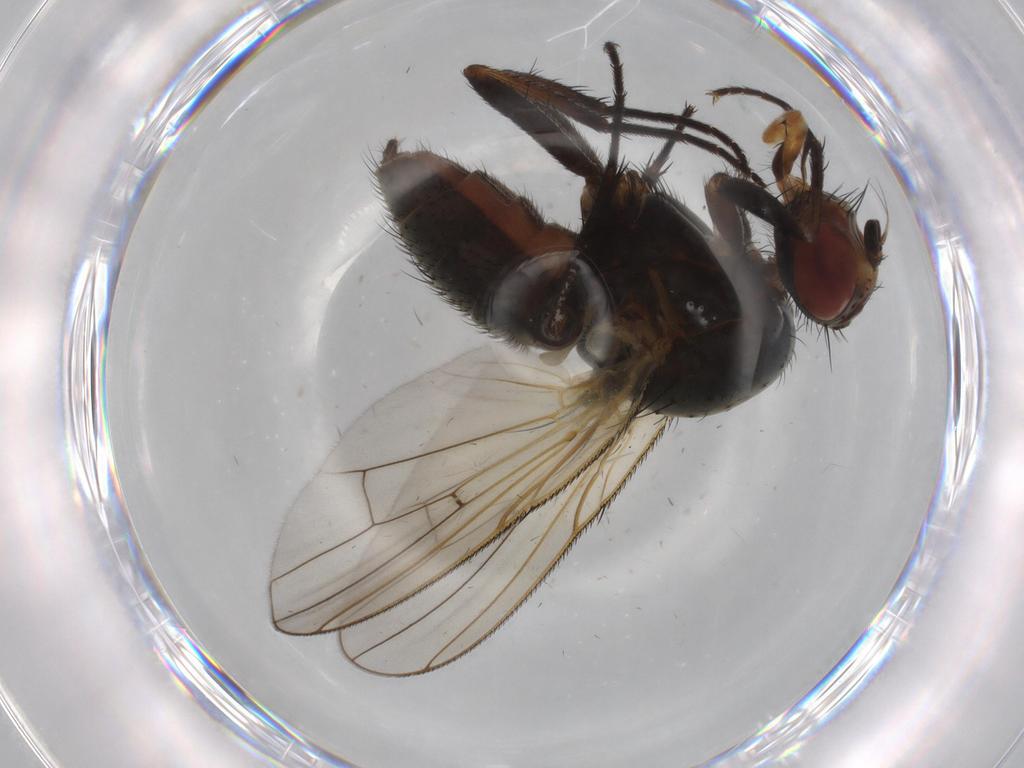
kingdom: Animalia
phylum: Arthropoda
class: Insecta
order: Diptera
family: Anthomyiidae
